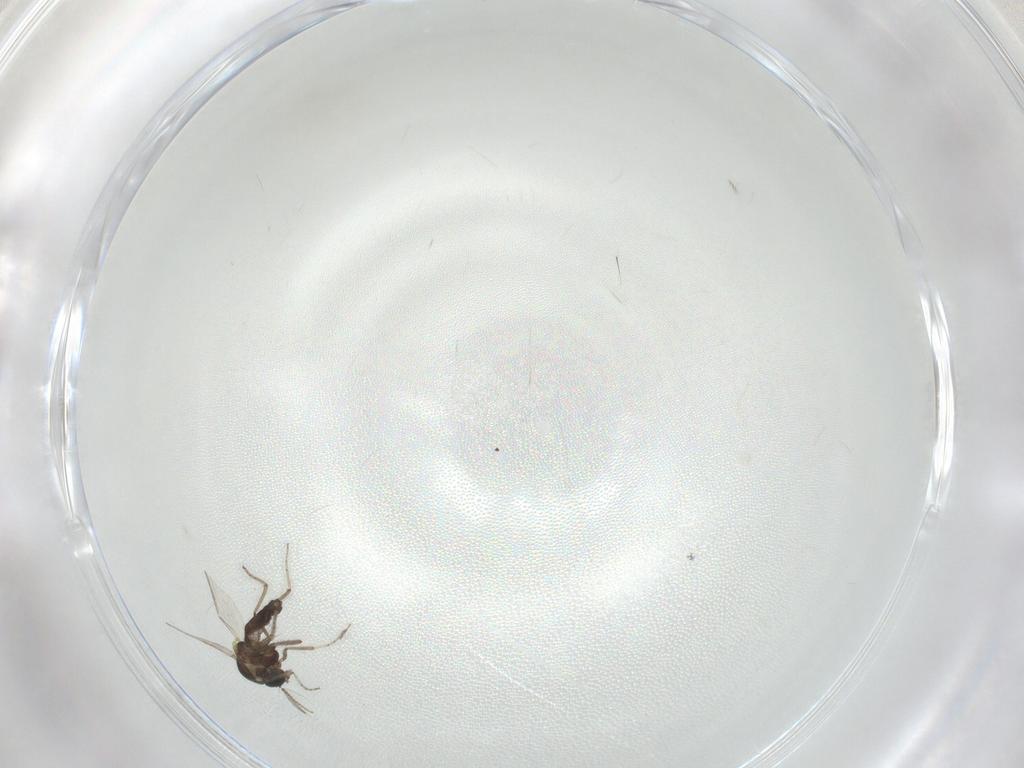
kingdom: Animalia
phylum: Arthropoda
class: Insecta
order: Diptera
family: Ceratopogonidae
